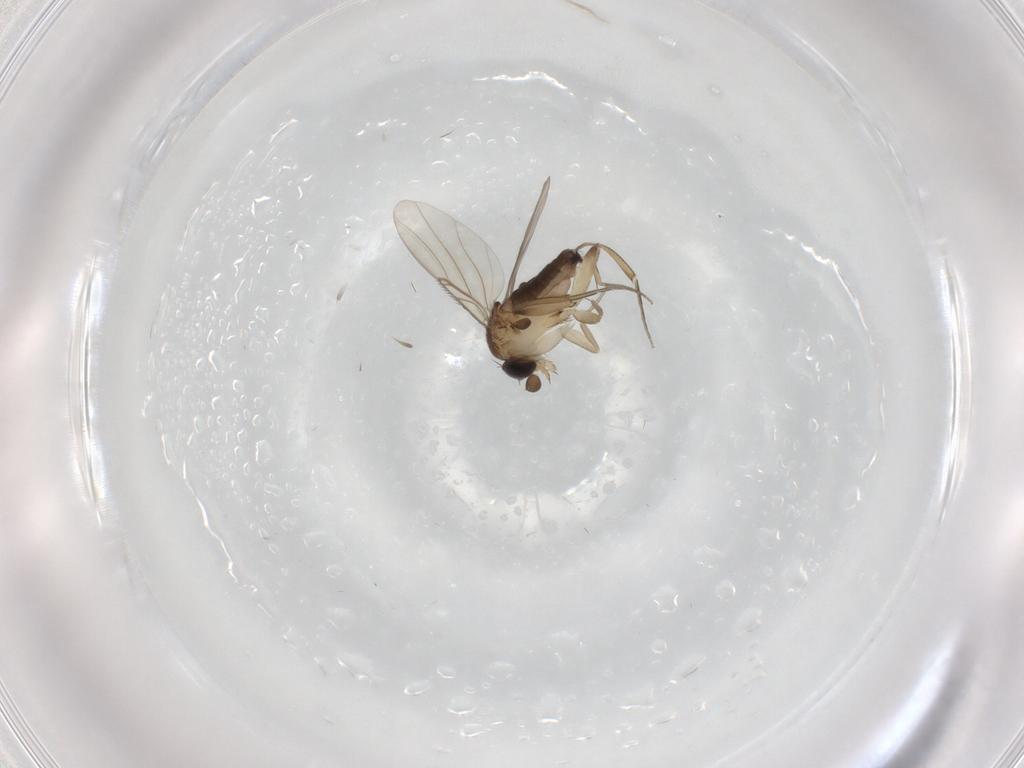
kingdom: Animalia
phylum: Arthropoda
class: Insecta
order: Diptera
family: Phoridae
